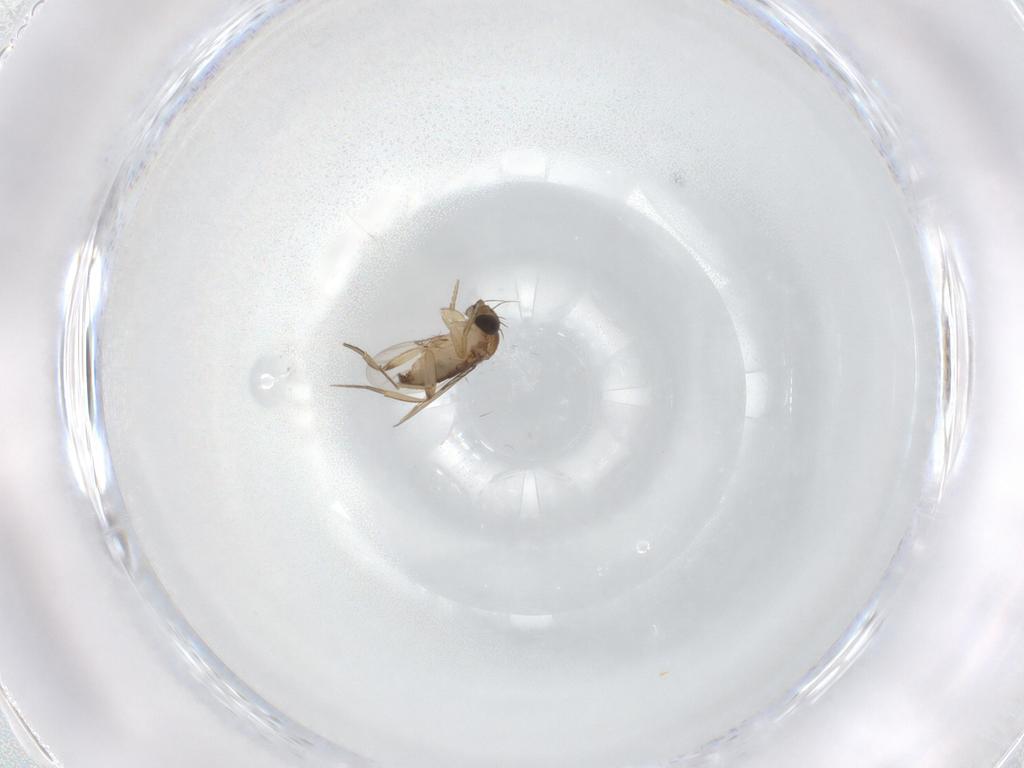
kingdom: Animalia
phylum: Arthropoda
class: Insecta
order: Diptera
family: Phoridae
